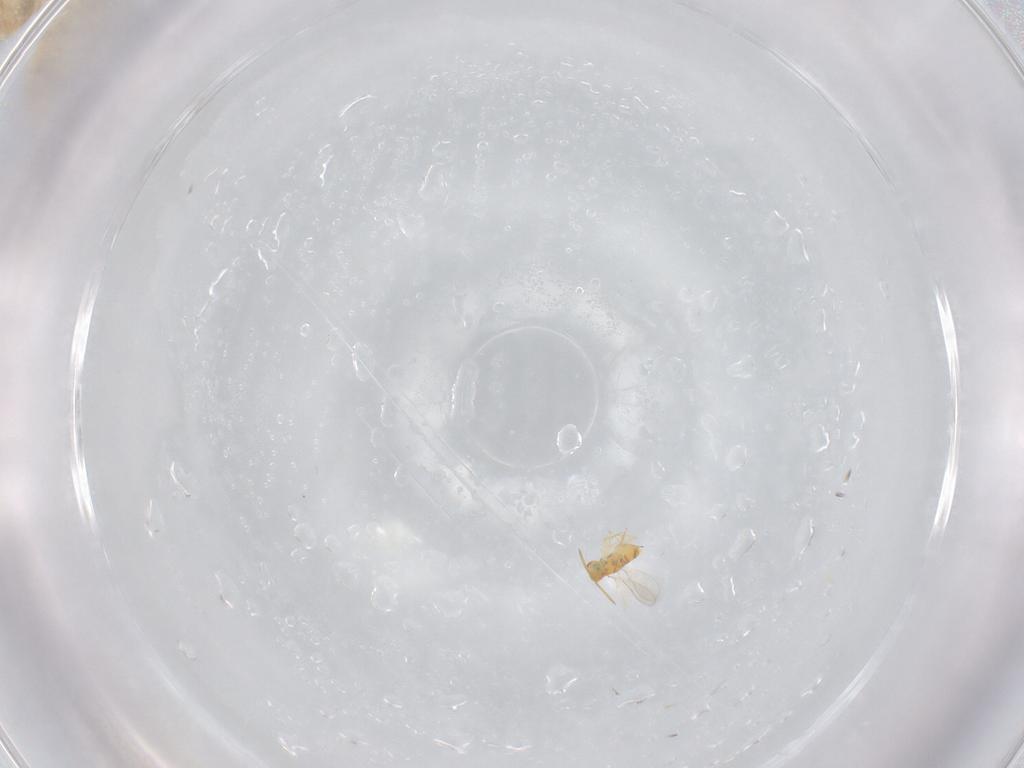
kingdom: Animalia
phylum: Arthropoda
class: Insecta
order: Hymenoptera
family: Aphelinidae
